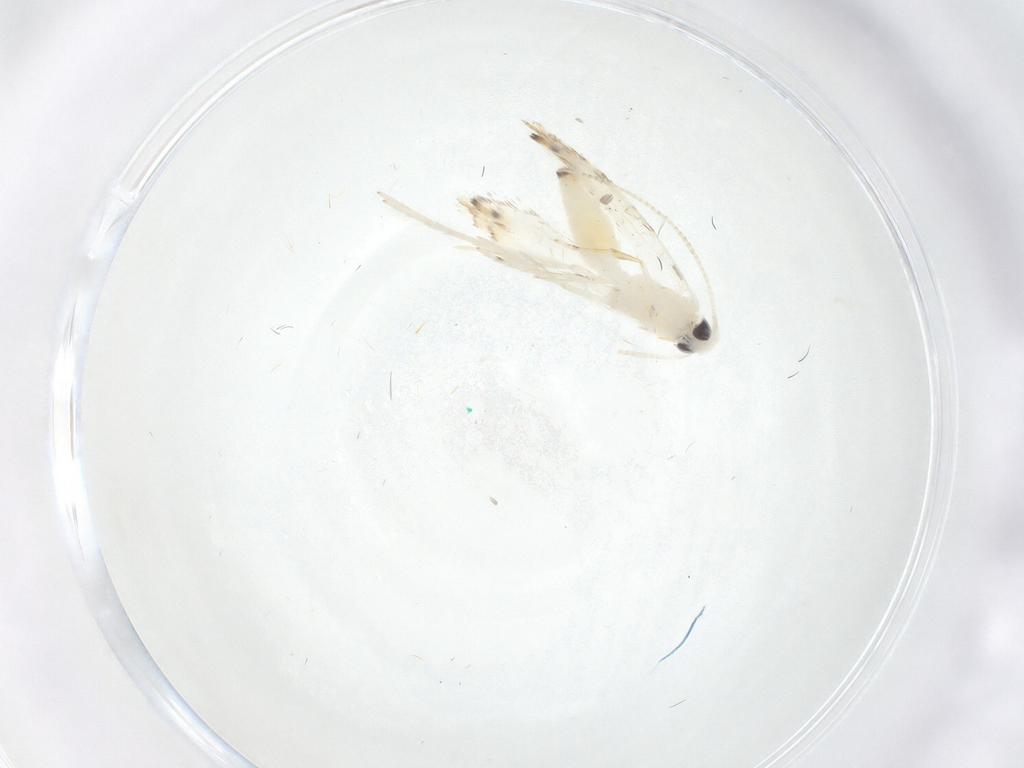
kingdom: Animalia
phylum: Arthropoda
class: Insecta
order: Lepidoptera
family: Gracillariidae
